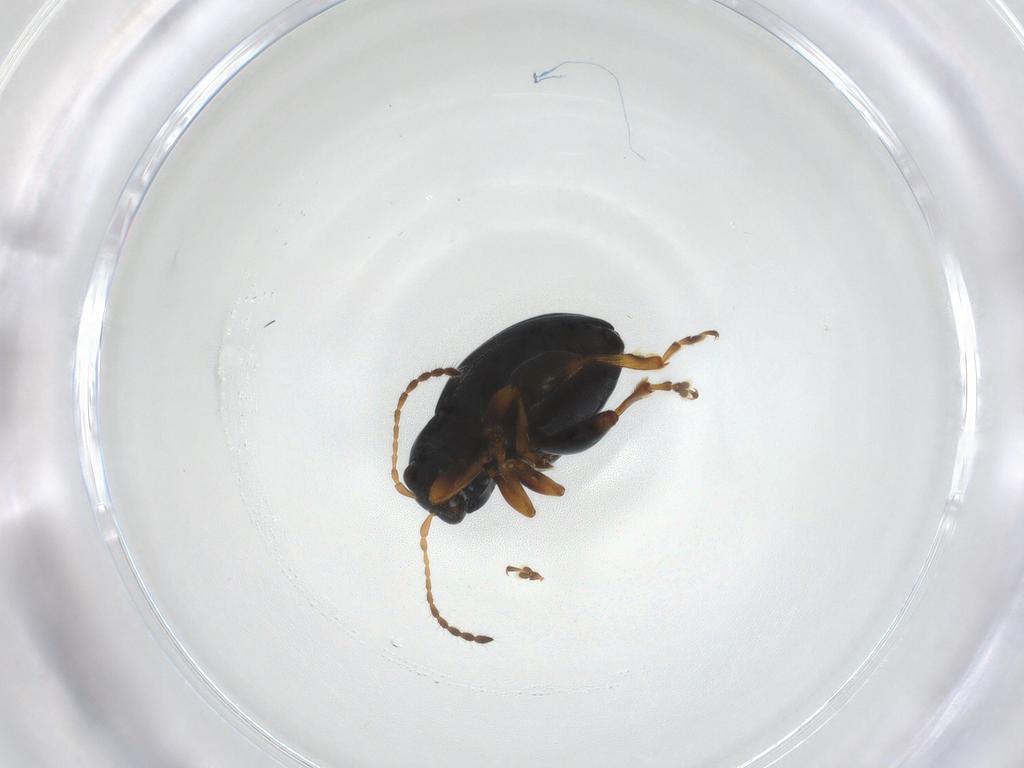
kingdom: Animalia
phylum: Arthropoda
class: Insecta
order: Coleoptera
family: Chrysomelidae
